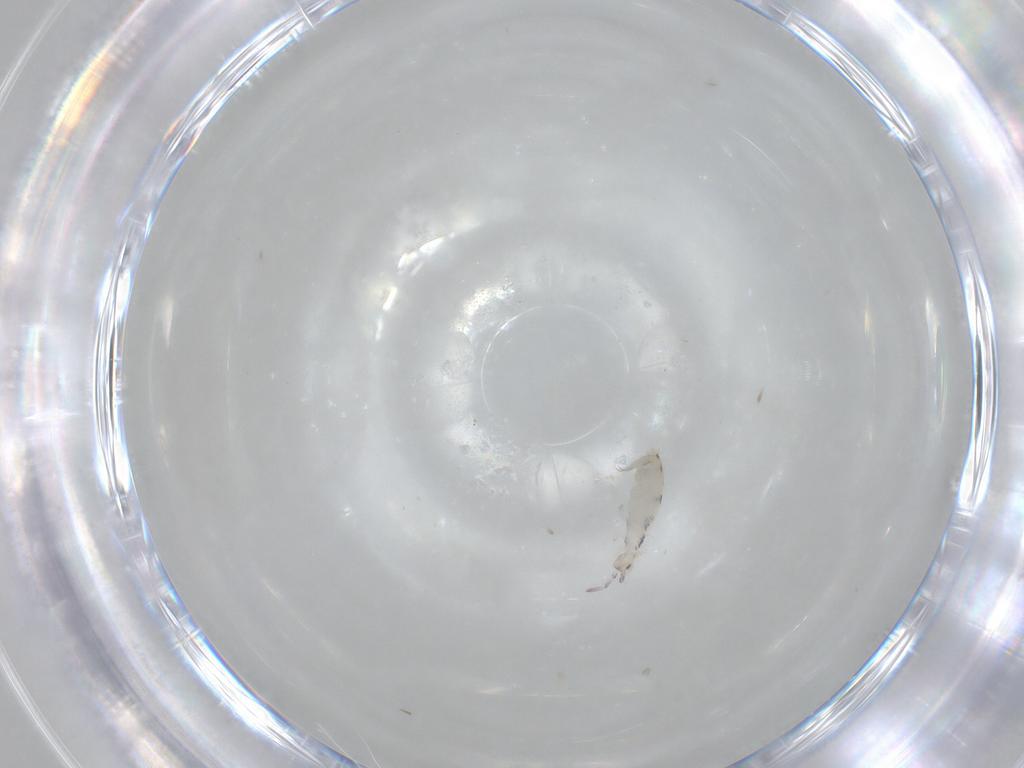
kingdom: Animalia
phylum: Arthropoda
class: Collembola
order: Entomobryomorpha
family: Entomobryidae
